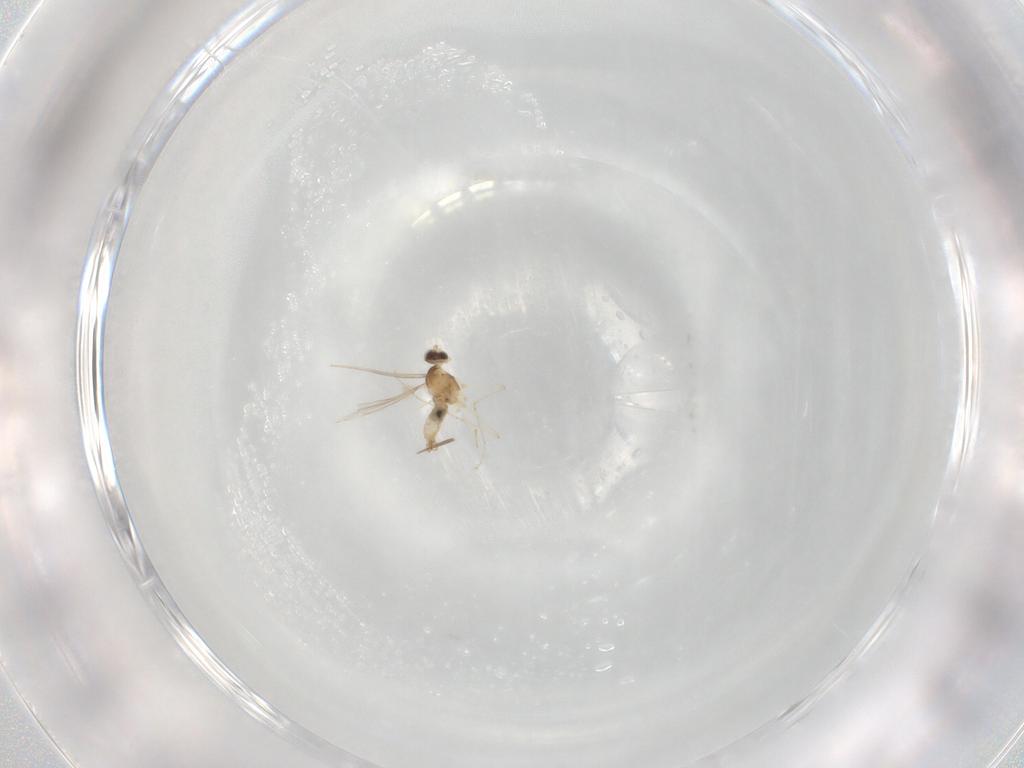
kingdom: Animalia
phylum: Arthropoda
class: Insecta
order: Diptera
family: Cecidomyiidae
